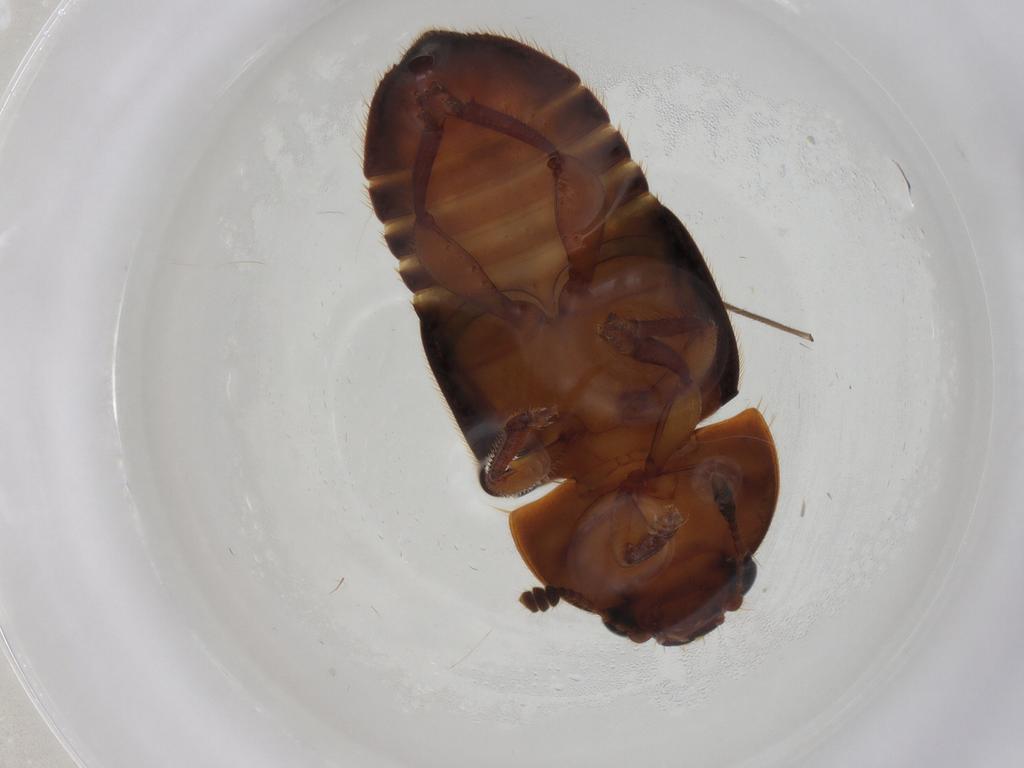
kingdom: Animalia
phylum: Arthropoda
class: Insecta
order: Coleoptera
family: Nitidulidae
